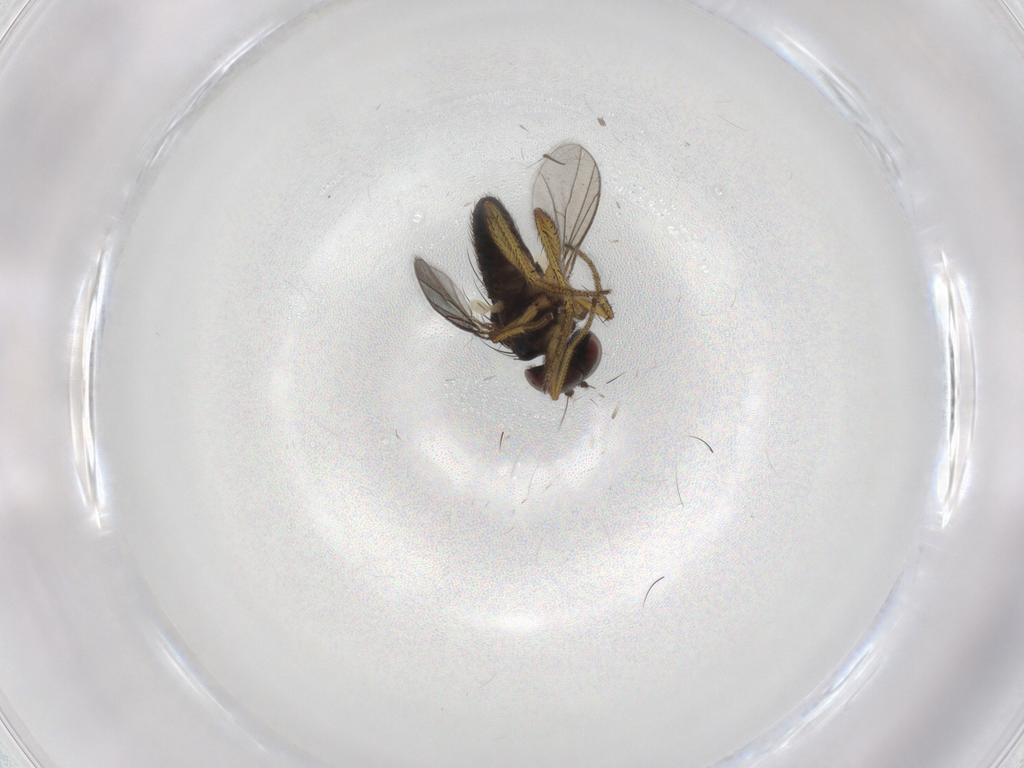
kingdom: Animalia
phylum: Arthropoda
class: Insecta
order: Diptera
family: Chironomidae
